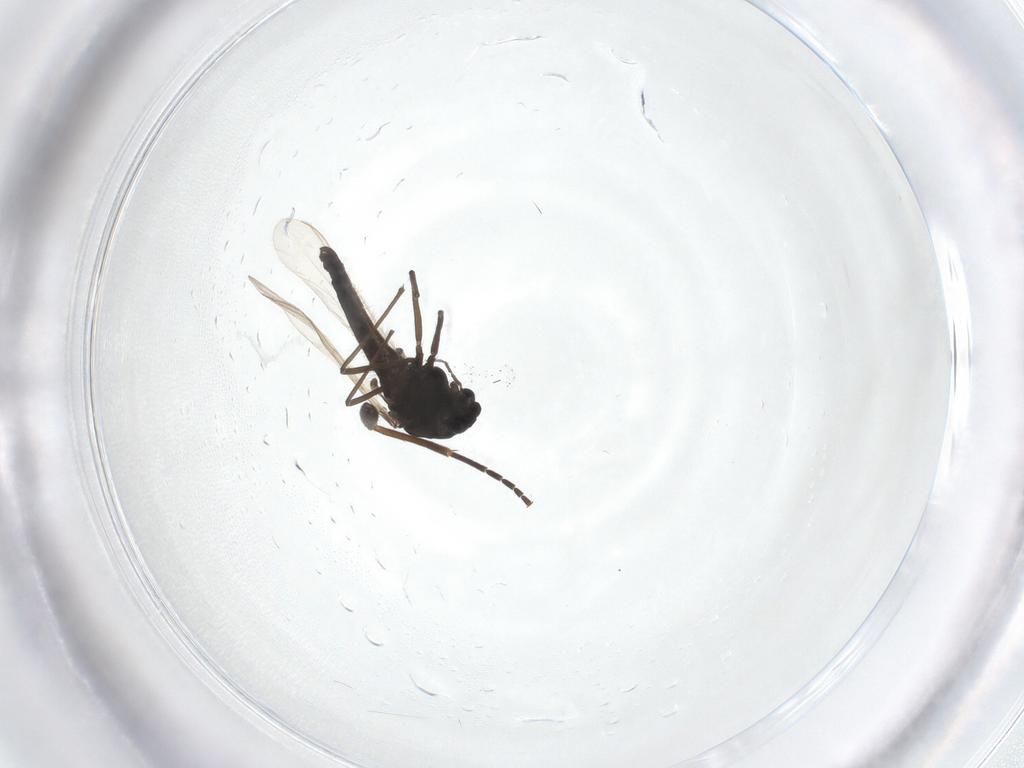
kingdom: Animalia
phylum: Arthropoda
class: Insecta
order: Diptera
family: Sciaridae
